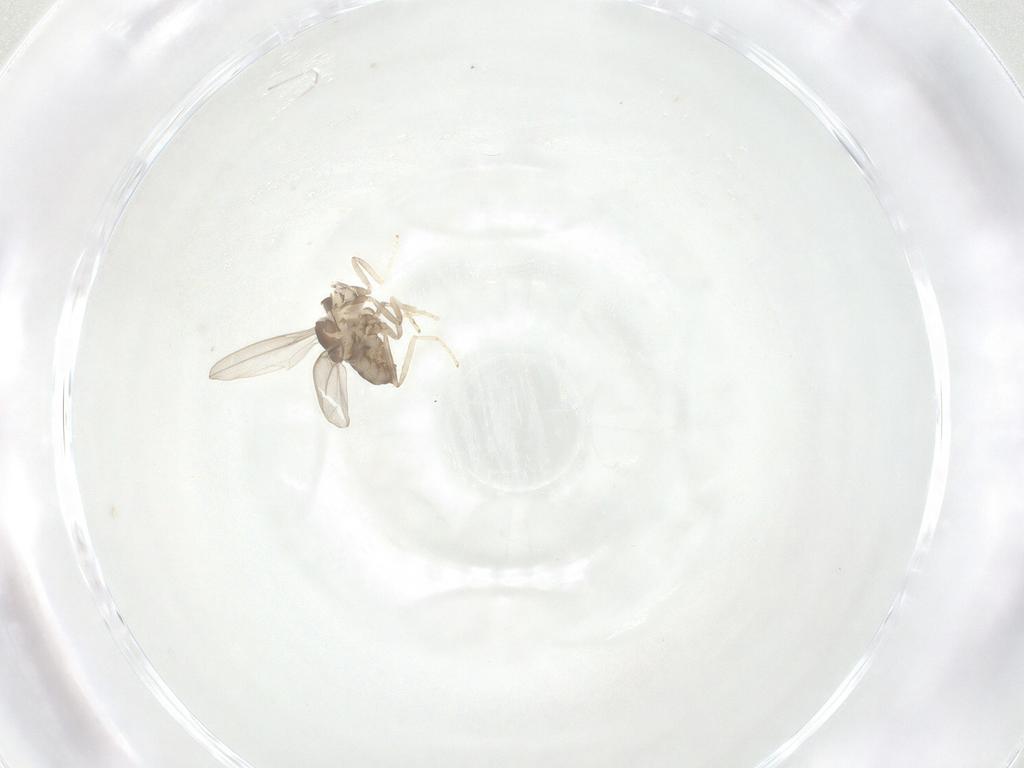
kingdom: Animalia
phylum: Arthropoda
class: Insecta
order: Diptera
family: Cecidomyiidae
